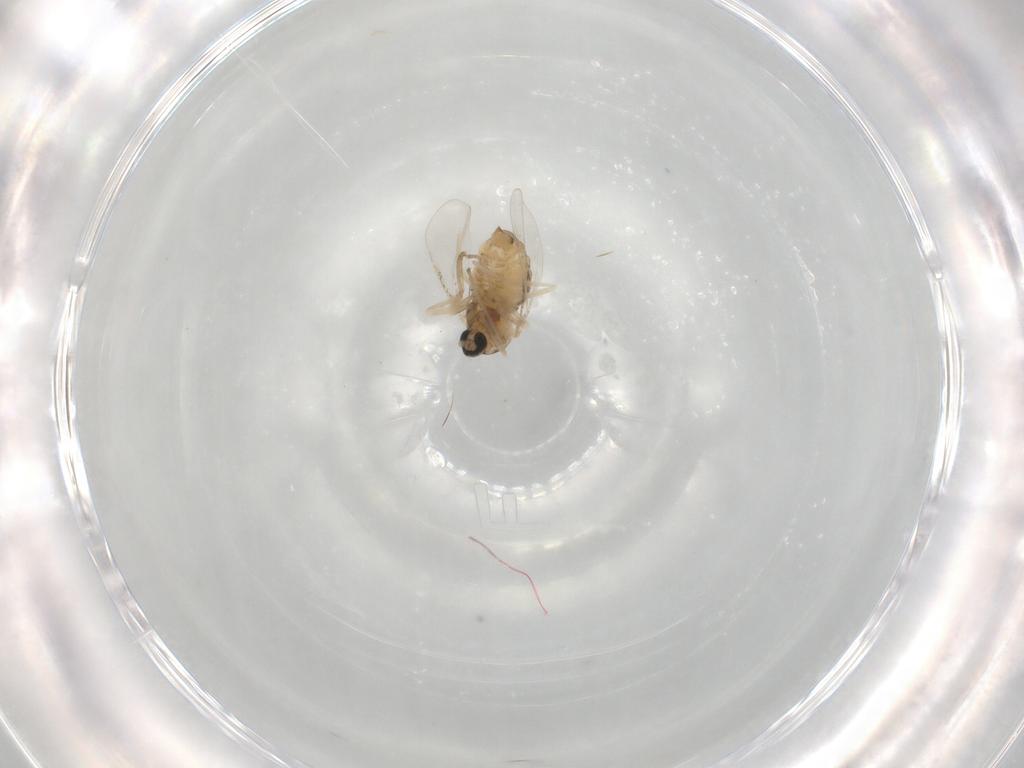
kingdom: Animalia
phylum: Arthropoda
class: Insecta
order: Diptera
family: Cecidomyiidae
